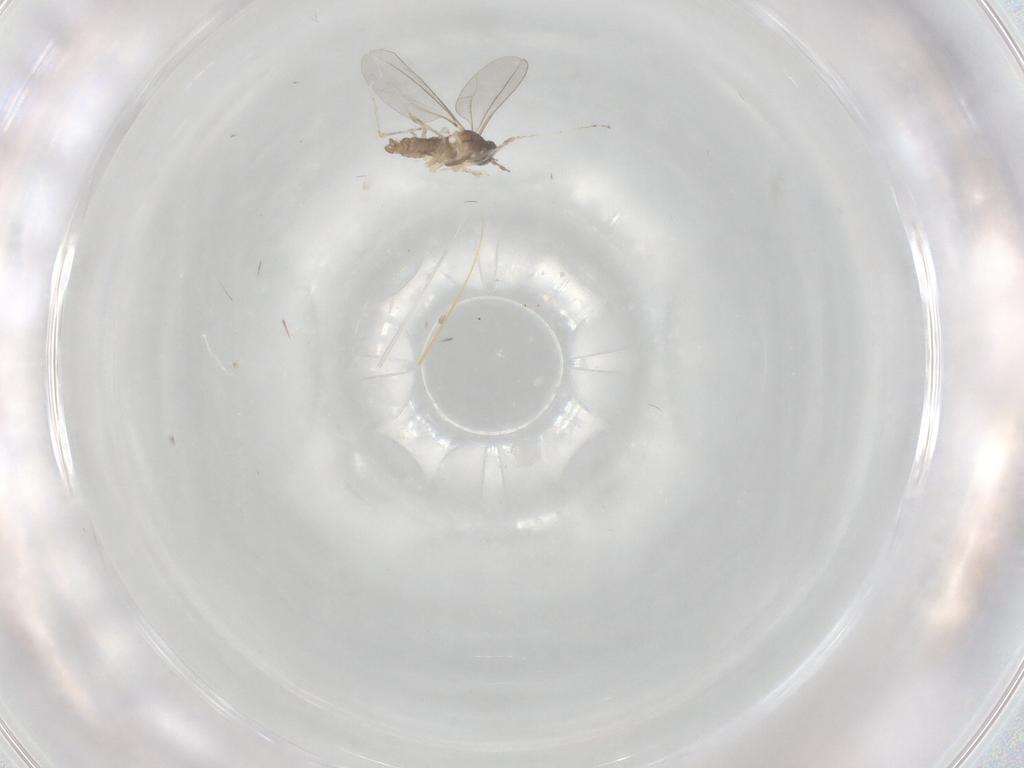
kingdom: Animalia
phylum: Arthropoda
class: Insecta
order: Diptera
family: Cecidomyiidae
